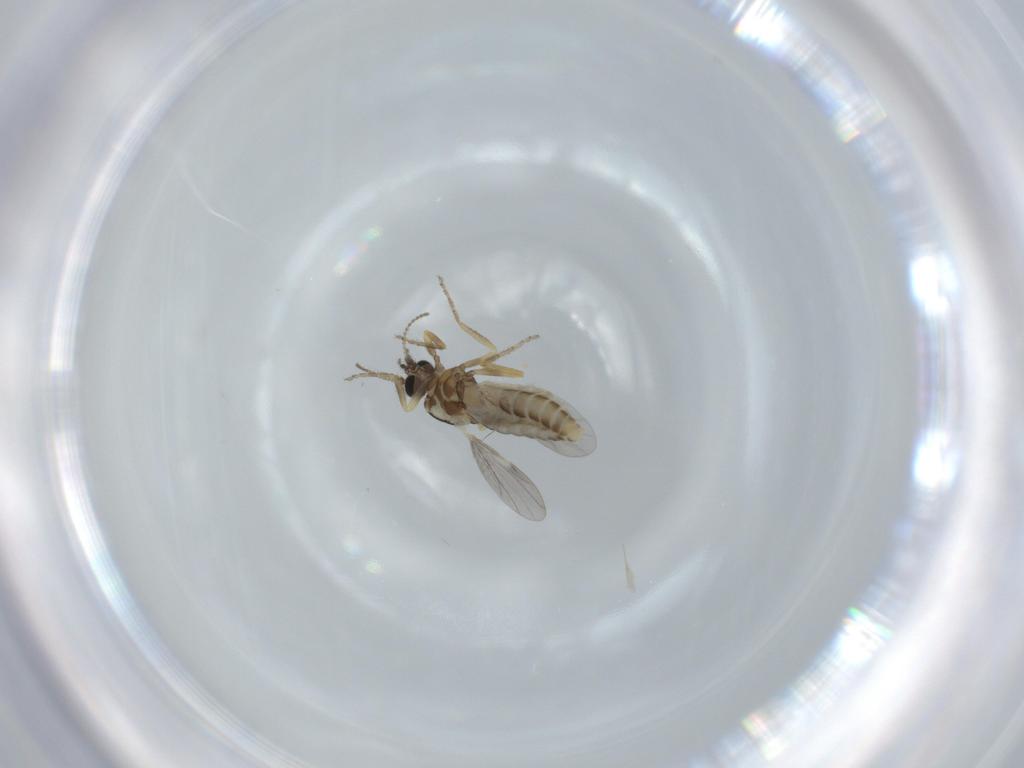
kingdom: Animalia
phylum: Arthropoda
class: Insecta
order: Diptera
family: Ceratopogonidae
